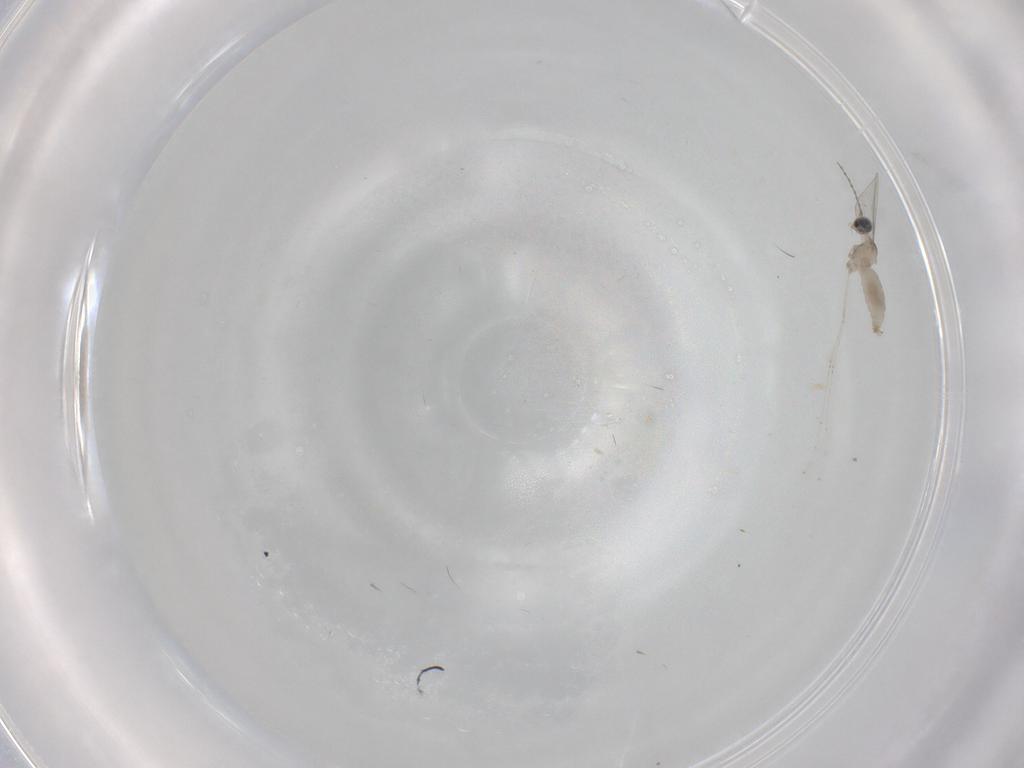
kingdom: Animalia
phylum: Arthropoda
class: Insecta
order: Diptera
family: Cecidomyiidae
